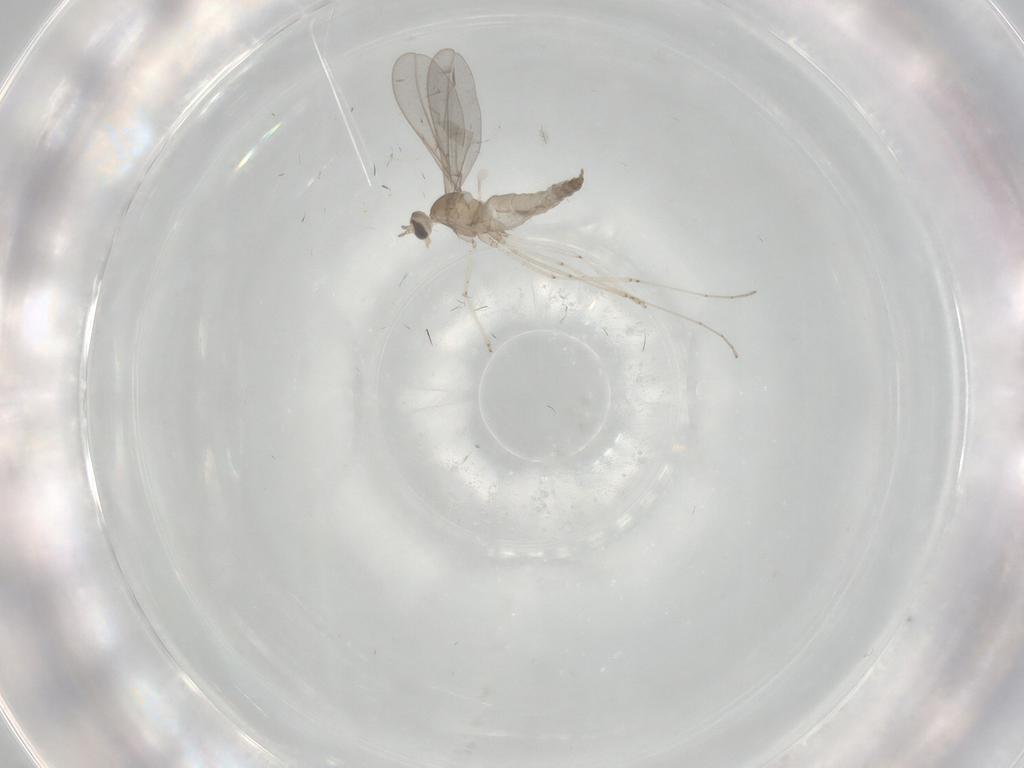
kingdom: Animalia
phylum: Arthropoda
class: Insecta
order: Diptera
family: Cecidomyiidae
